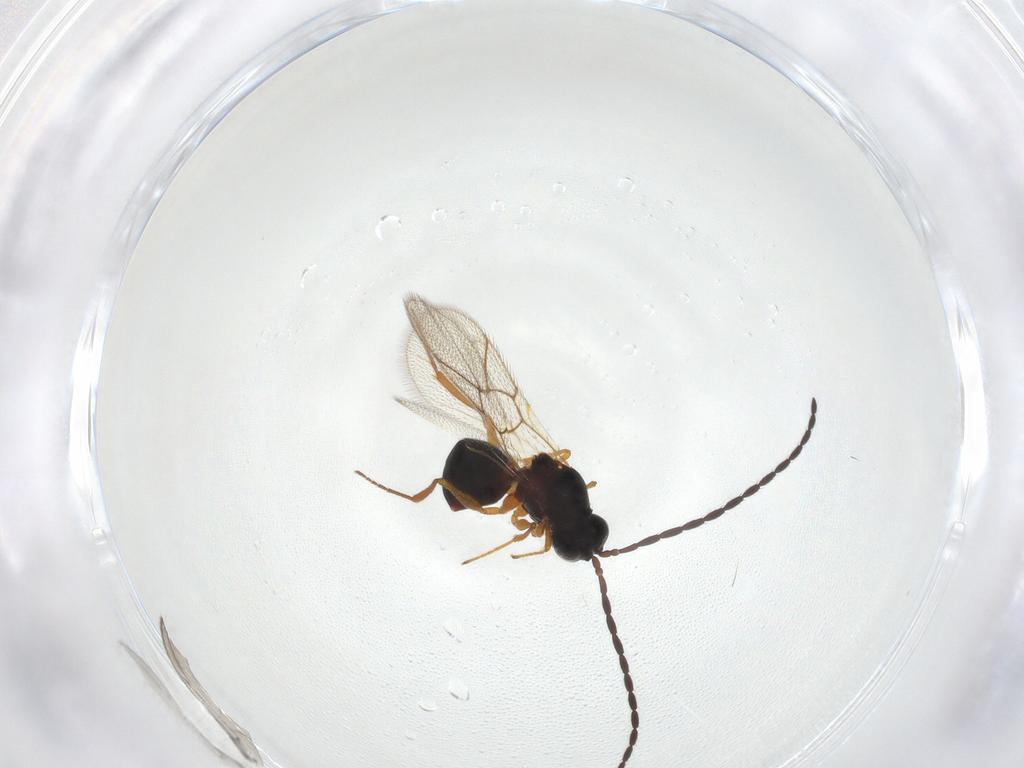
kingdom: Animalia
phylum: Arthropoda
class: Insecta
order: Hymenoptera
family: Figitidae
